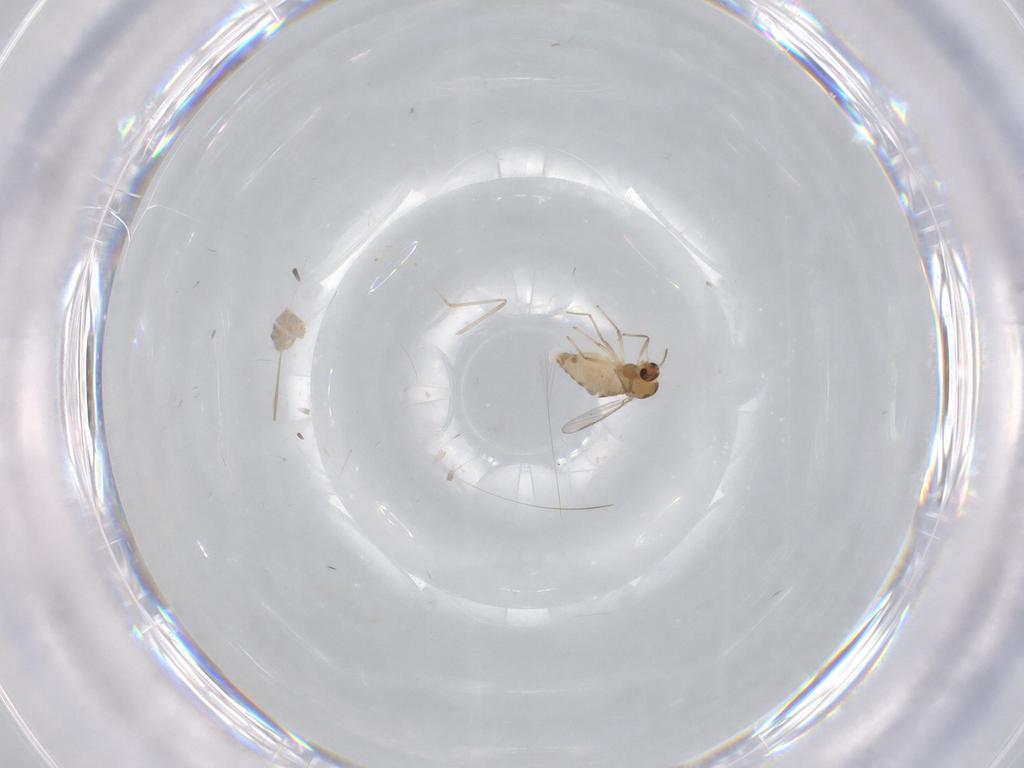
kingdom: Animalia
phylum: Arthropoda
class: Insecta
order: Diptera
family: Chironomidae
